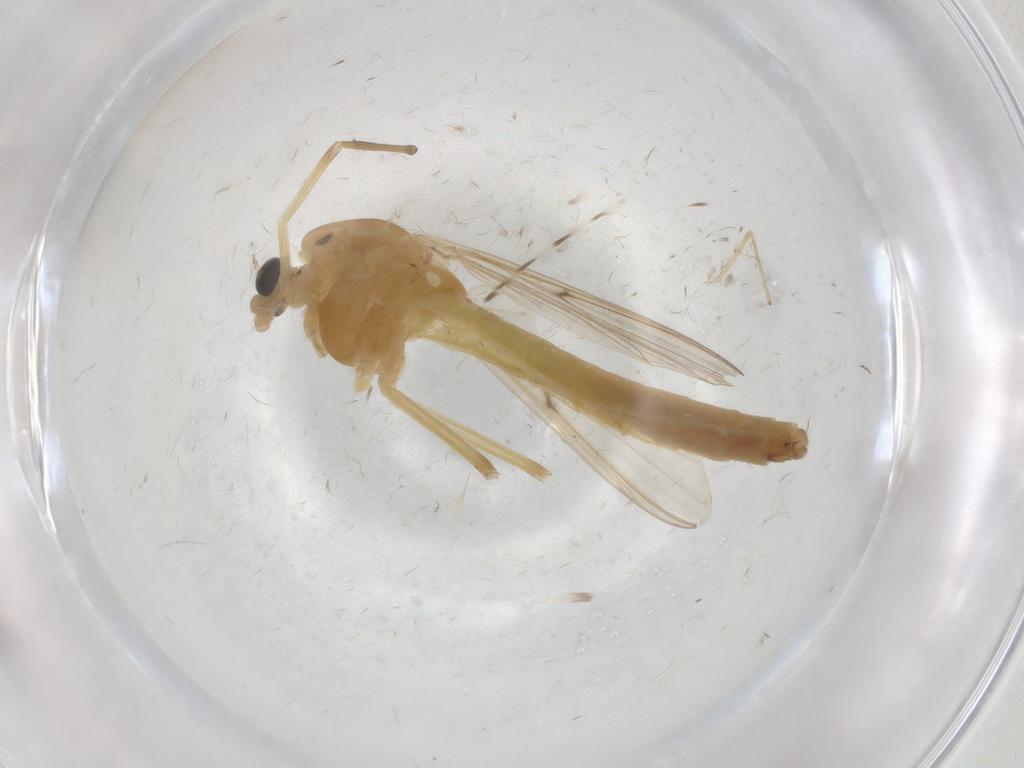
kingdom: Animalia
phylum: Arthropoda
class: Insecta
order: Diptera
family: Chironomidae
